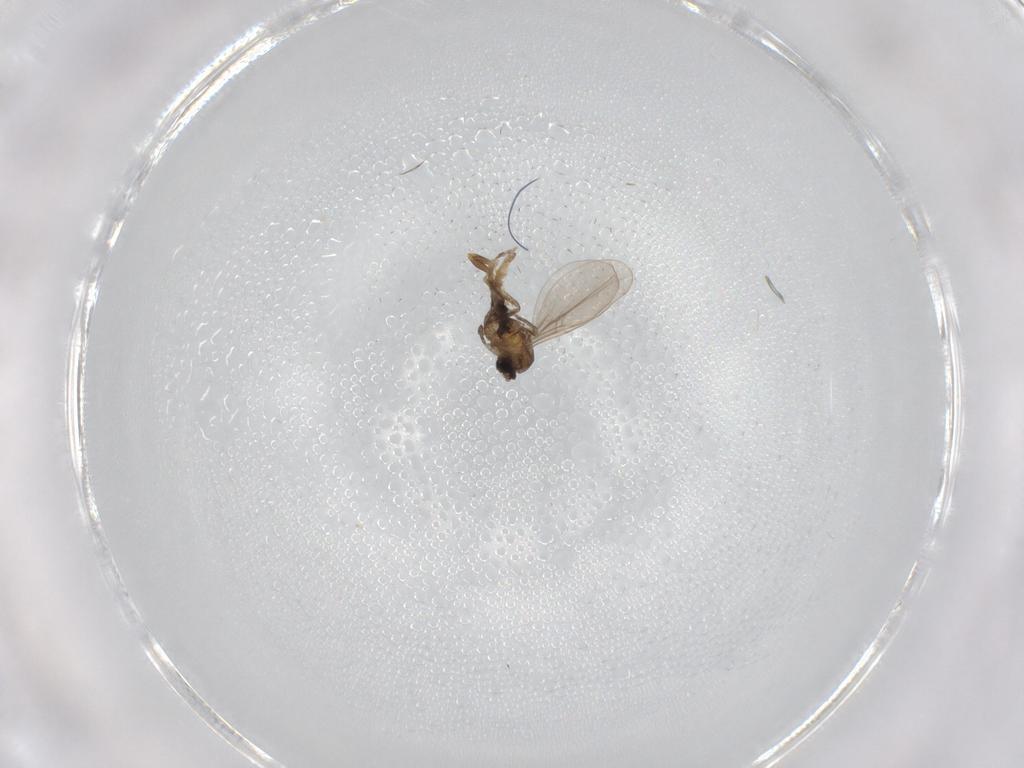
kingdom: Animalia
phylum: Arthropoda
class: Insecta
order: Diptera
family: Cecidomyiidae
